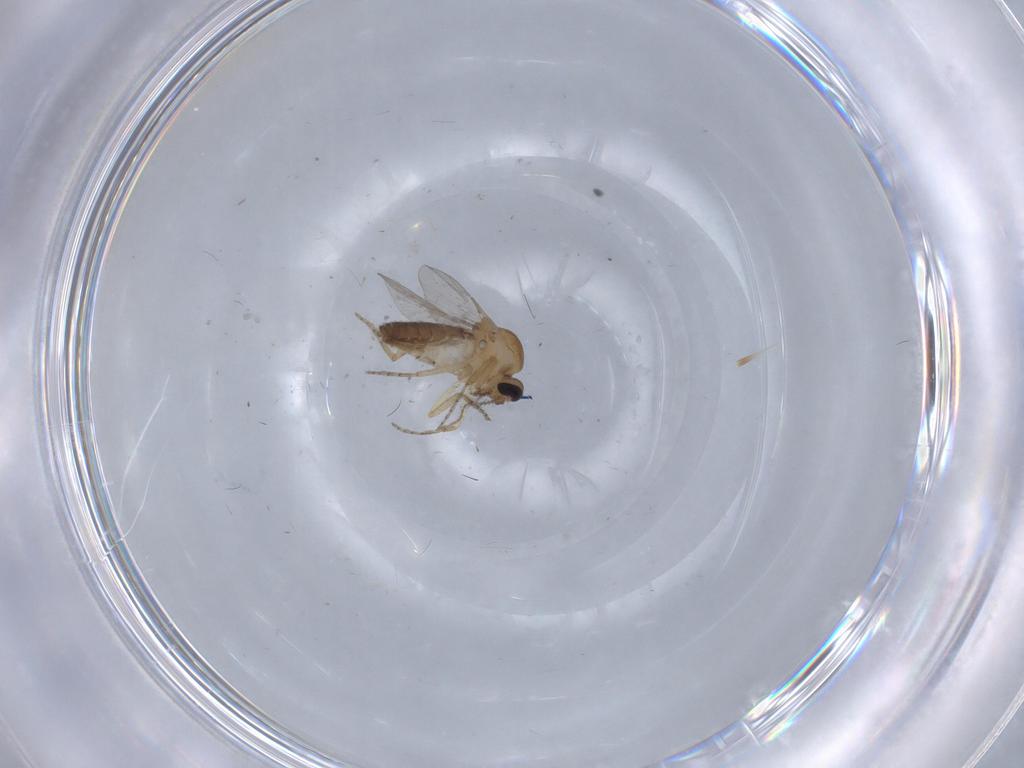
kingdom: Animalia
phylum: Arthropoda
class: Insecta
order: Diptera
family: Ceratopogonidae
